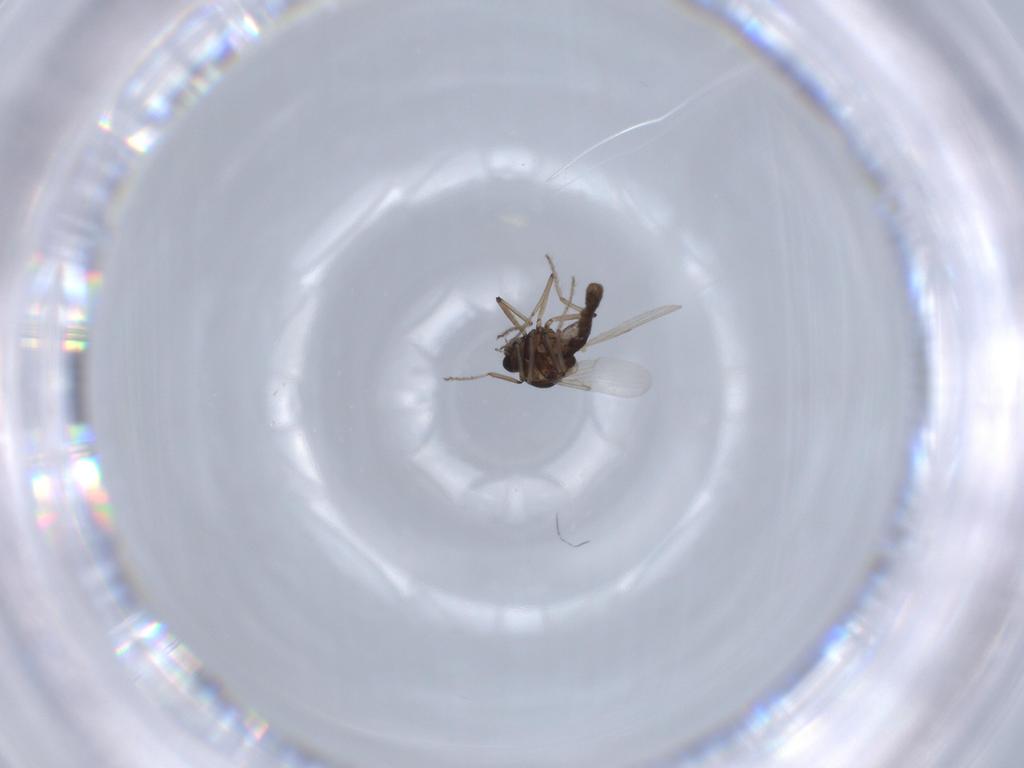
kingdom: Animalia
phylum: Arthropoda
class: Insecta
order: Diptera
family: Ceratopogonidae
